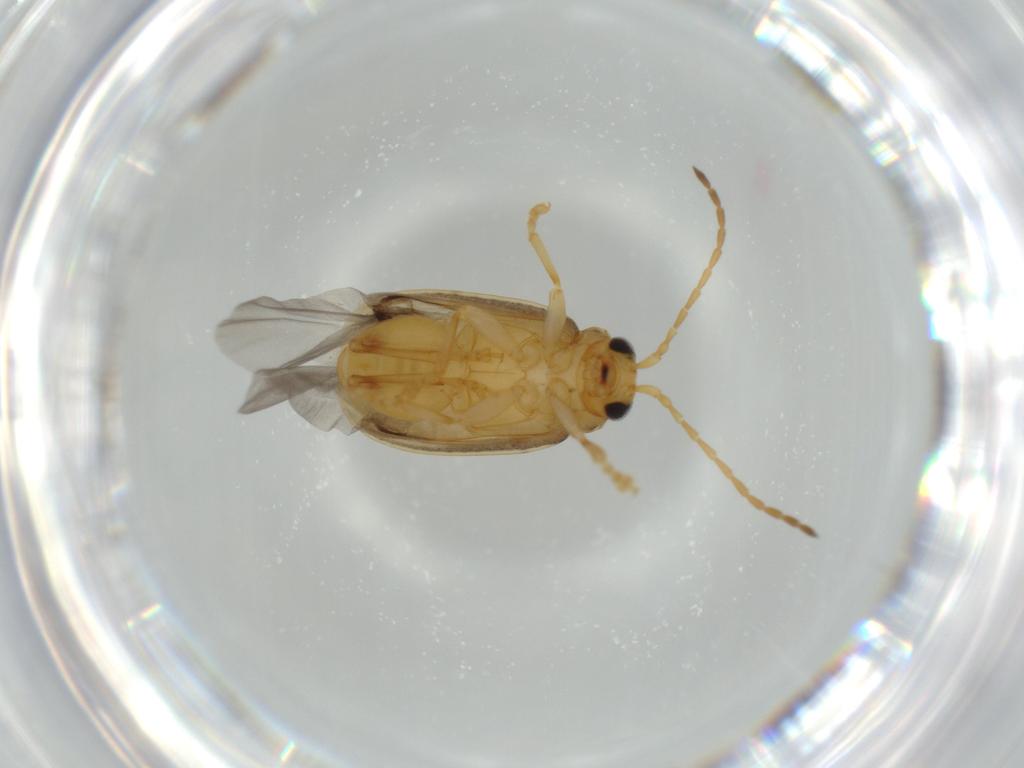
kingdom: Animalia
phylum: Arthropoda
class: Insecta
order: Coleoptera
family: Chrysomelidae
